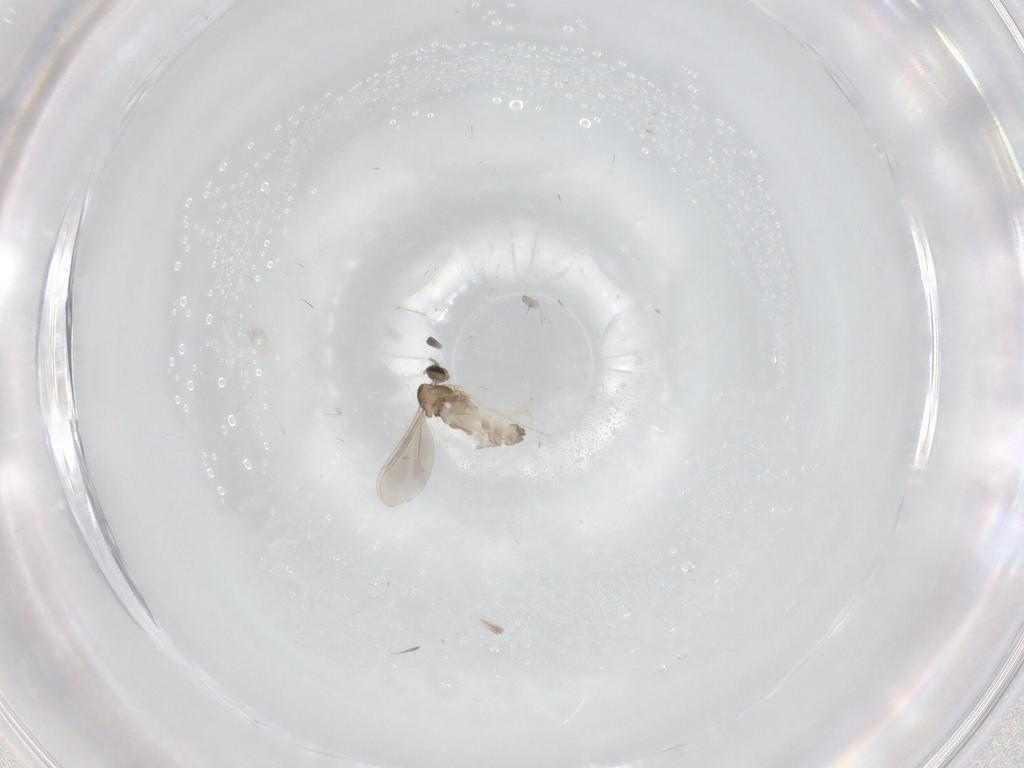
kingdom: Animalia
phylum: Arthropoda
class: Insecta
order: Diptera
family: Cecidomyiidae
